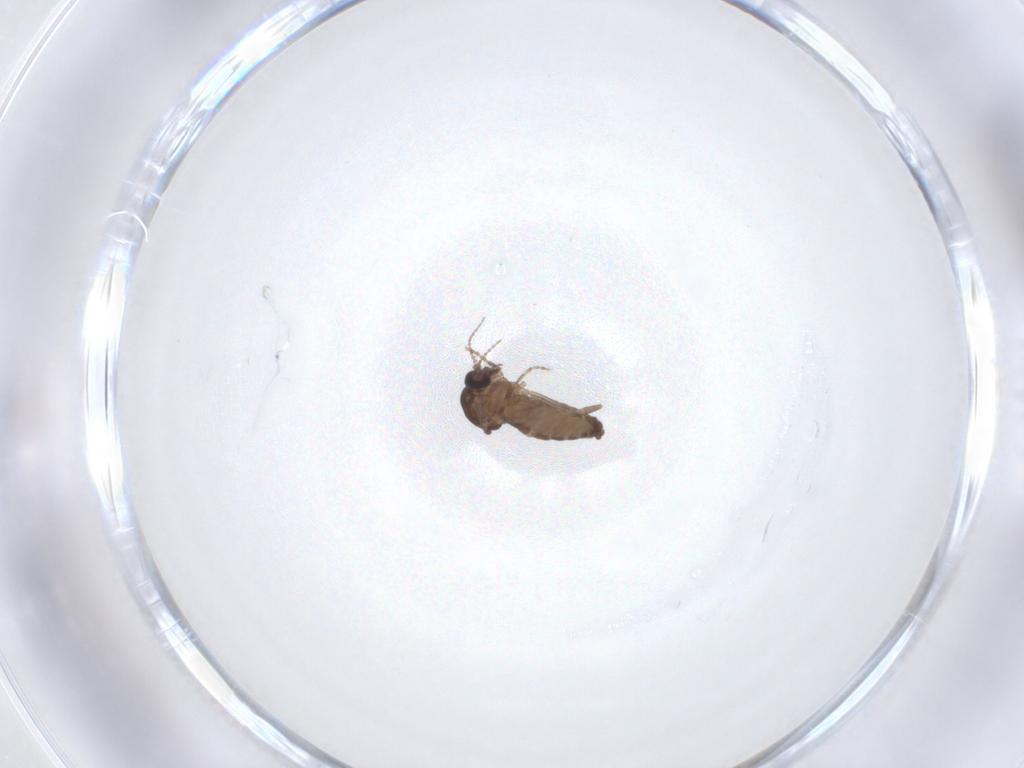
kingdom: Animalia
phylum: Arthropoda
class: Insecta
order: Diptera
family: Ceratopogonidae
